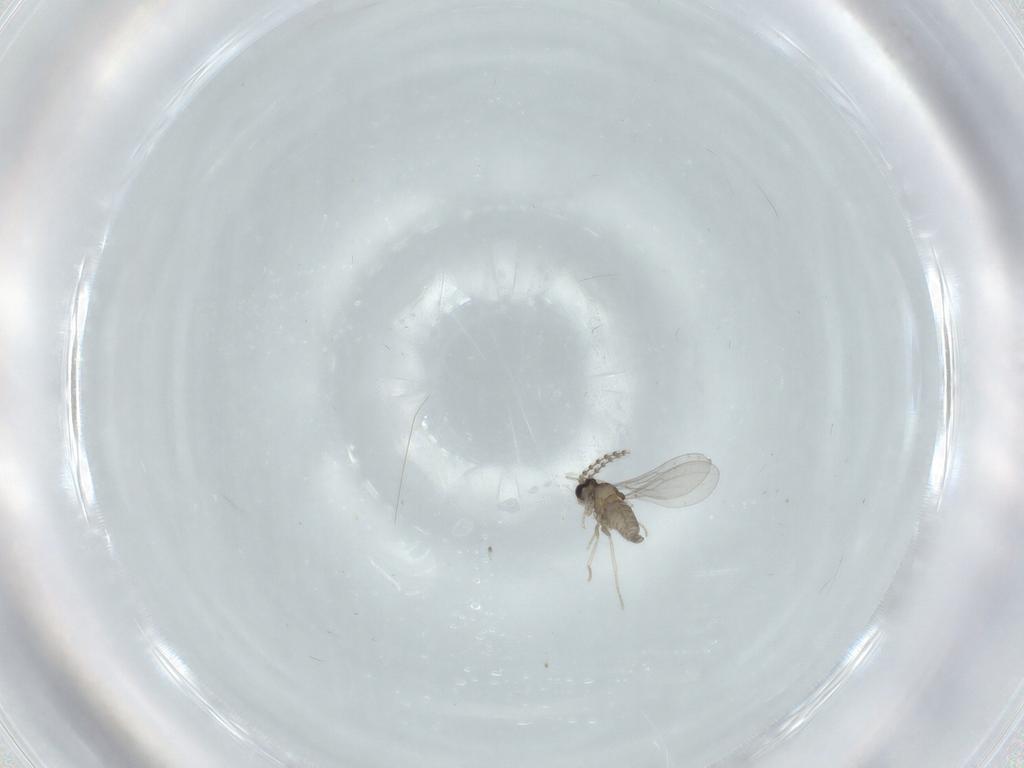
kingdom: Animalia
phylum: Arthropoda
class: Insecta
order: Diptera
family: Cecidomyiidae
